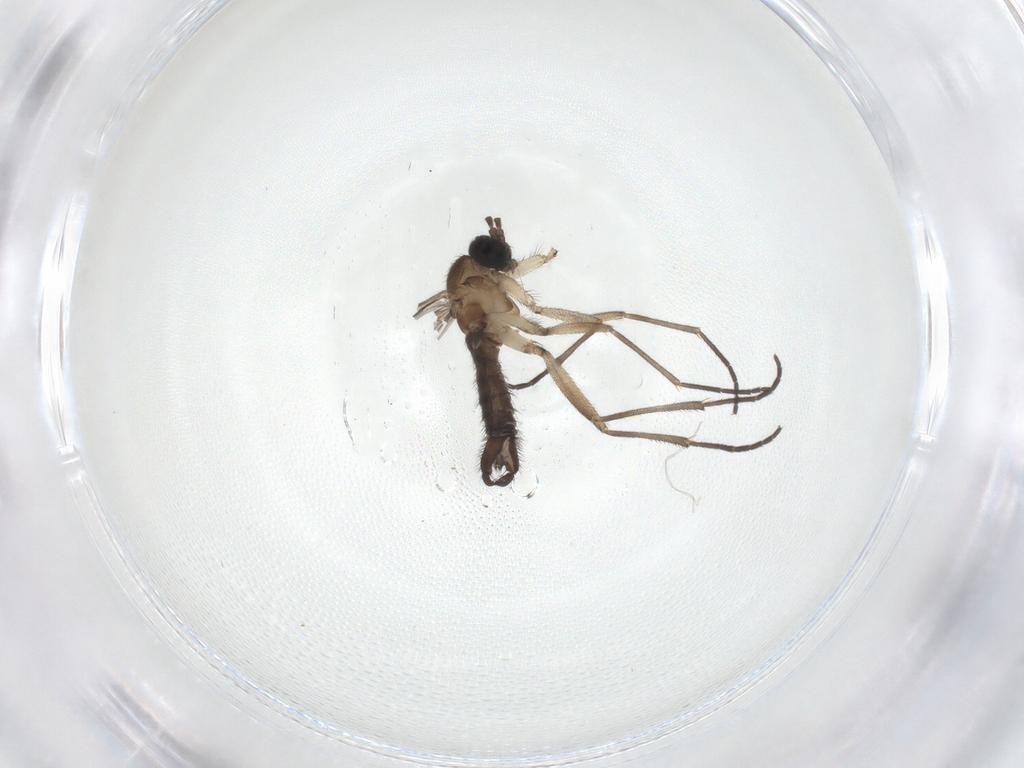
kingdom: Animalia
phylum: Arthropoda
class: Insecta
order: Diptera
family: Sciaridae
